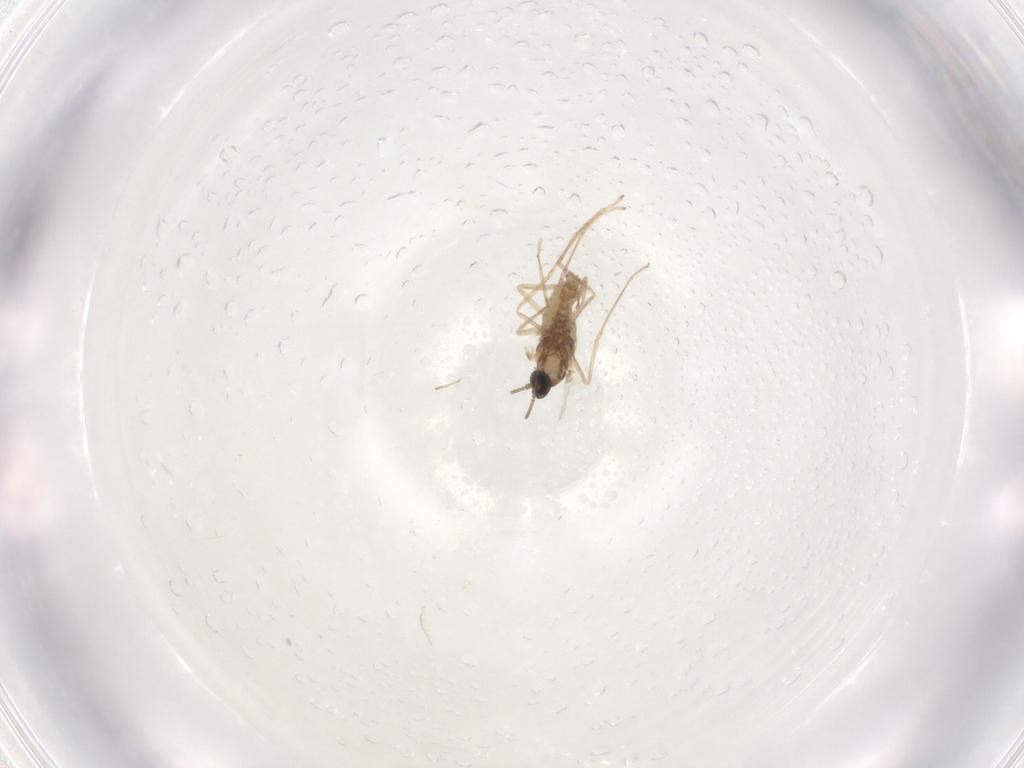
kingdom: Animalia
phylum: Arthropoda
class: Insecta
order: Diptera
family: Cecidomyiidae
